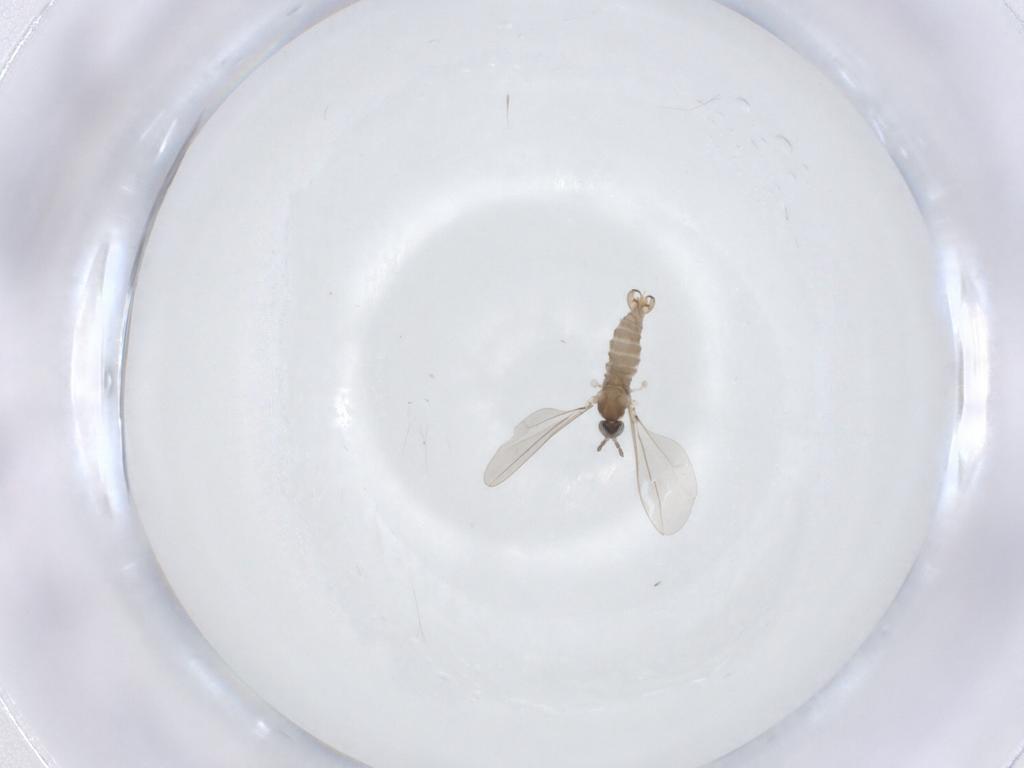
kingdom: Animalia
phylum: Arthropoda
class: Insecta
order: Diptera
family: Cecidomyiidae
